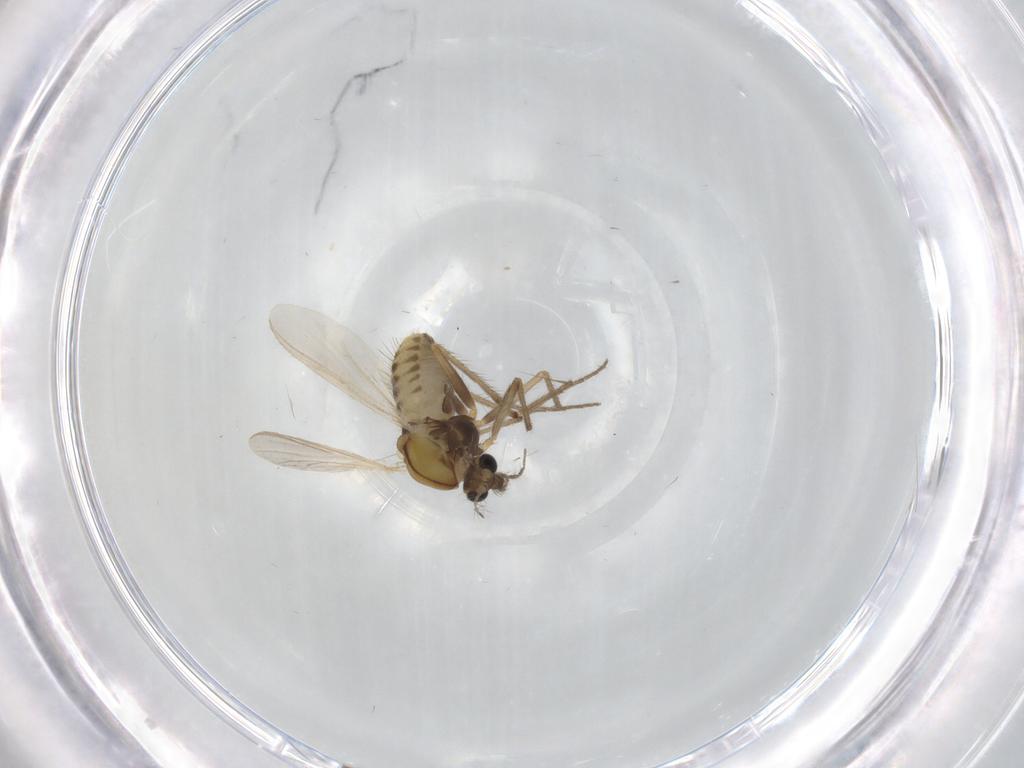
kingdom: Animalia
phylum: Arthropoda
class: Insecta
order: Diptera
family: Chironomidae
